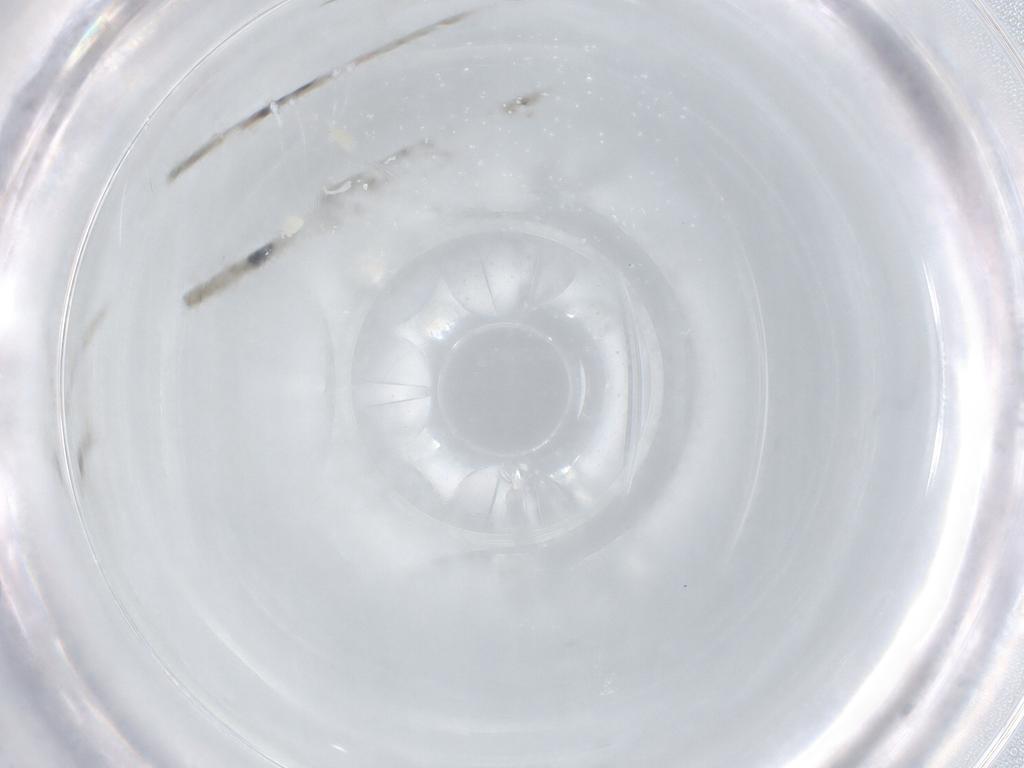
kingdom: Animalia
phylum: Arthropoda
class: Arachnida
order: Trombidiformes
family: Eupodidae
